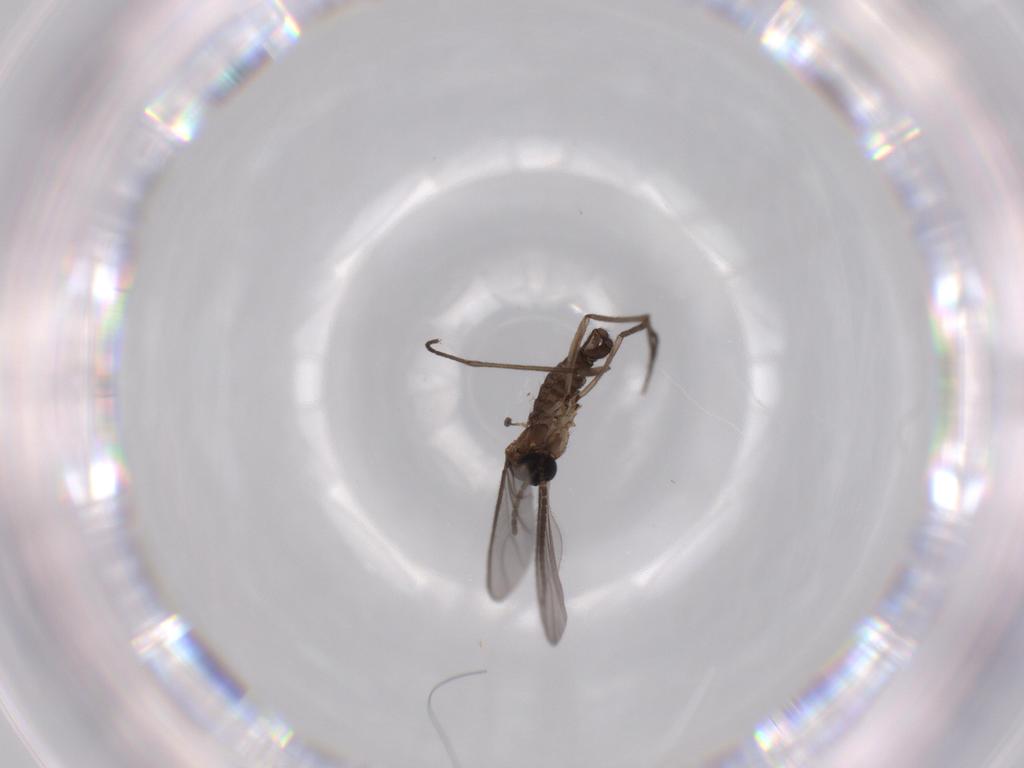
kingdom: Animalia
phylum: Arthropoda
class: Insecta
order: Diptera
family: Sciaridae
